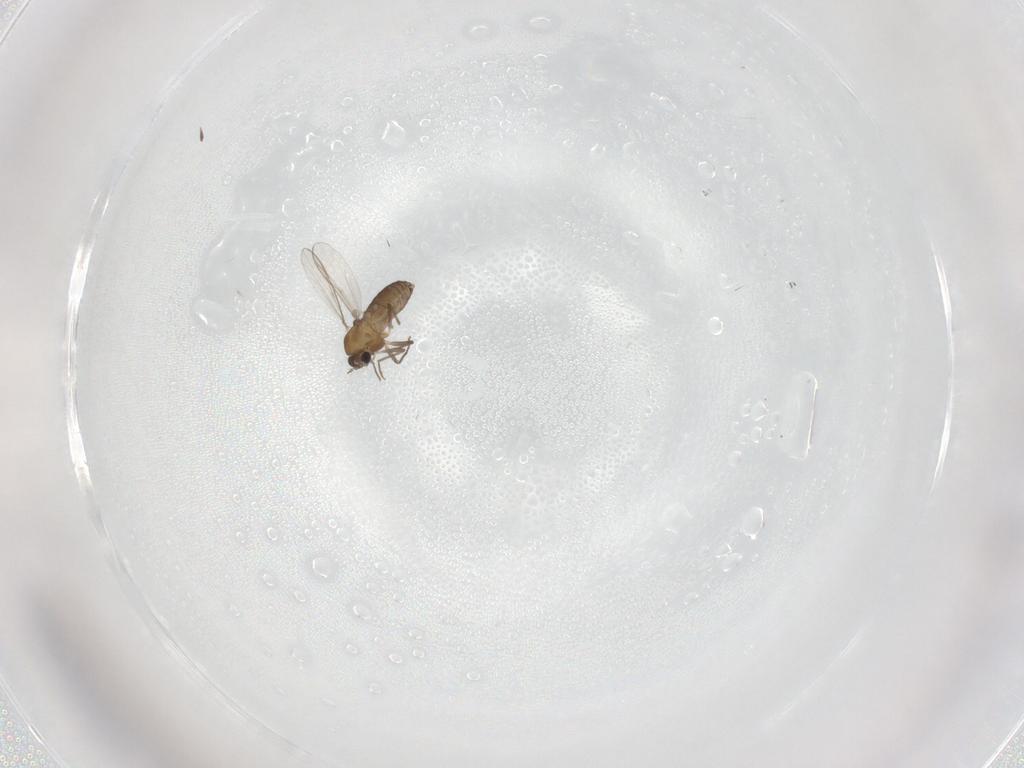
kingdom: Animalia
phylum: Arthropoda
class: Insecta
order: Diptera
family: Chironomidae
